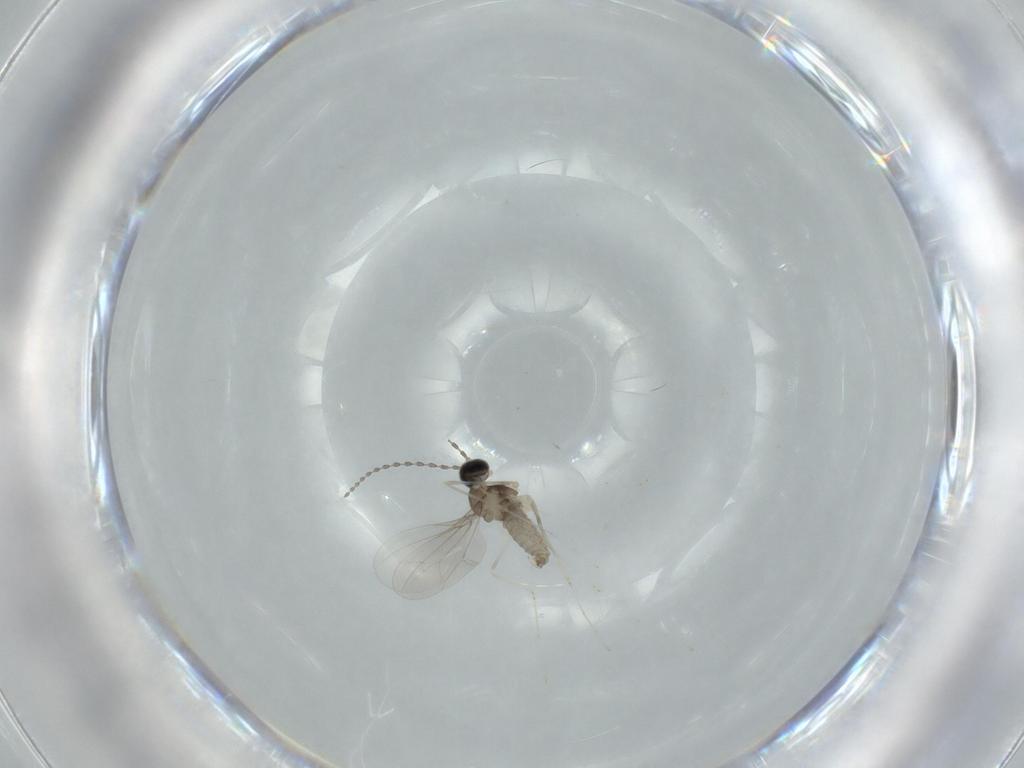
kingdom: Animalia
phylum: Arthropoda
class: Insecta
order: Diptera
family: Cecidomyiidae
